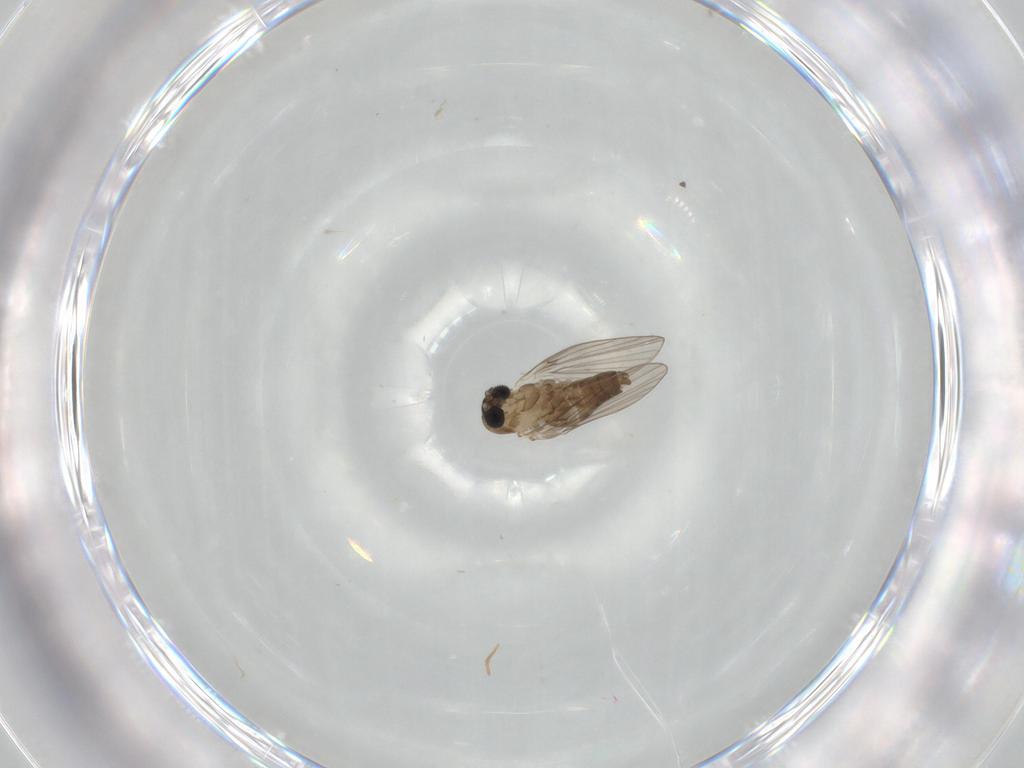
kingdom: Animalia
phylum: Arthropoda
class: Insecta
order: Diptera
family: Psychodidae
